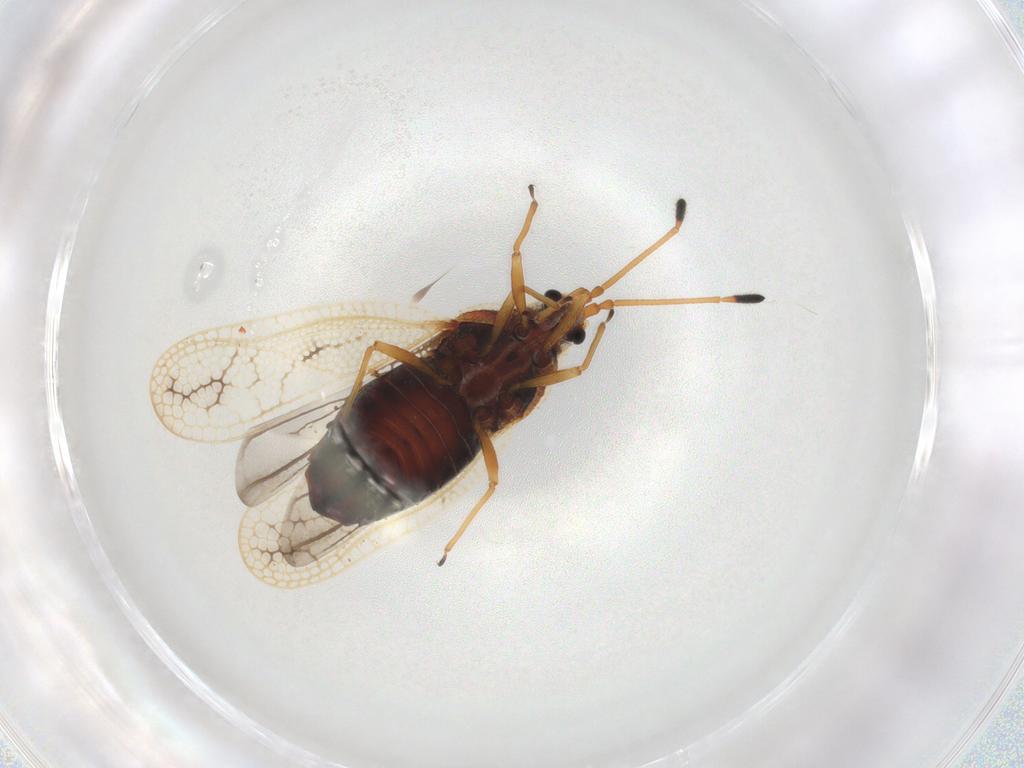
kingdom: Animalia
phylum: Arthropoda
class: Insecta
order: Hemiptera
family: Tingidae
